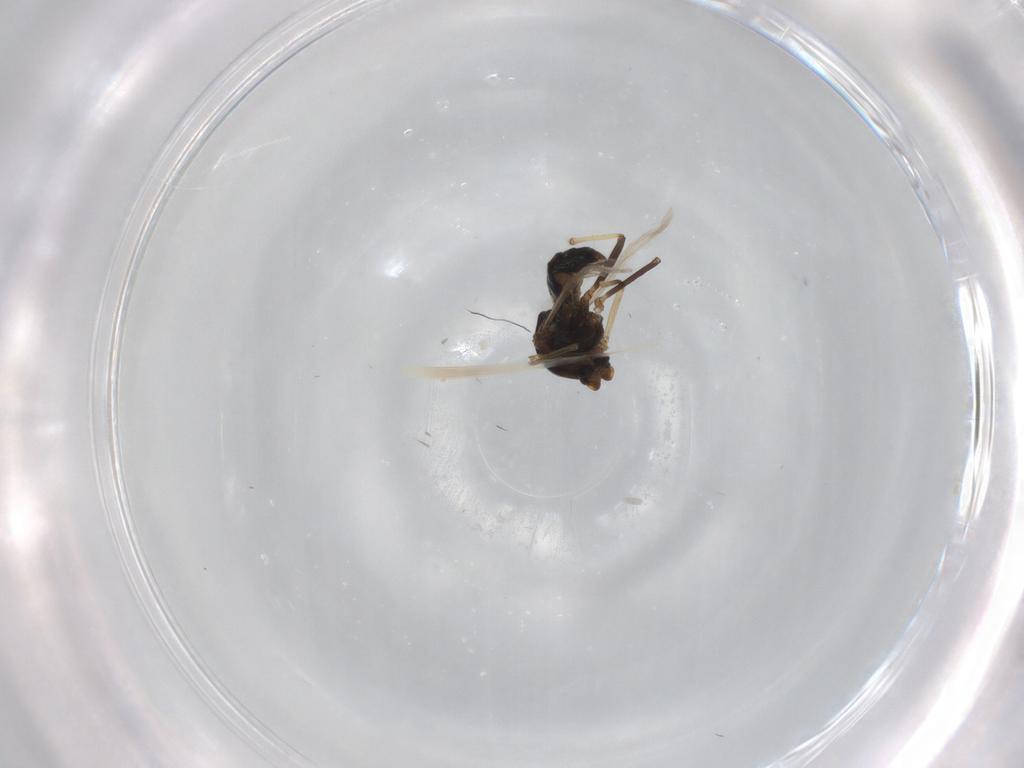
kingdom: Animalia
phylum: Arthropoda
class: Insecta
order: Diptera
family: Ceratopogonidae
